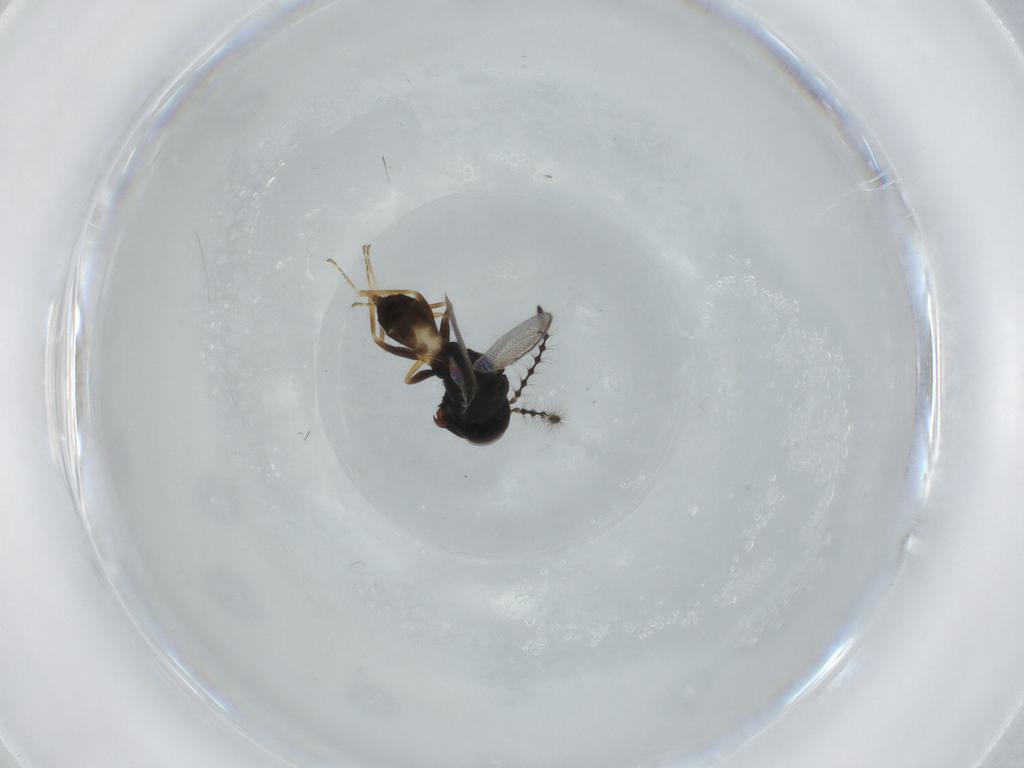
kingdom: Animalia
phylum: Arthropoda
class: Insecta
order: Hymenoptera
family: Pteromalidae
